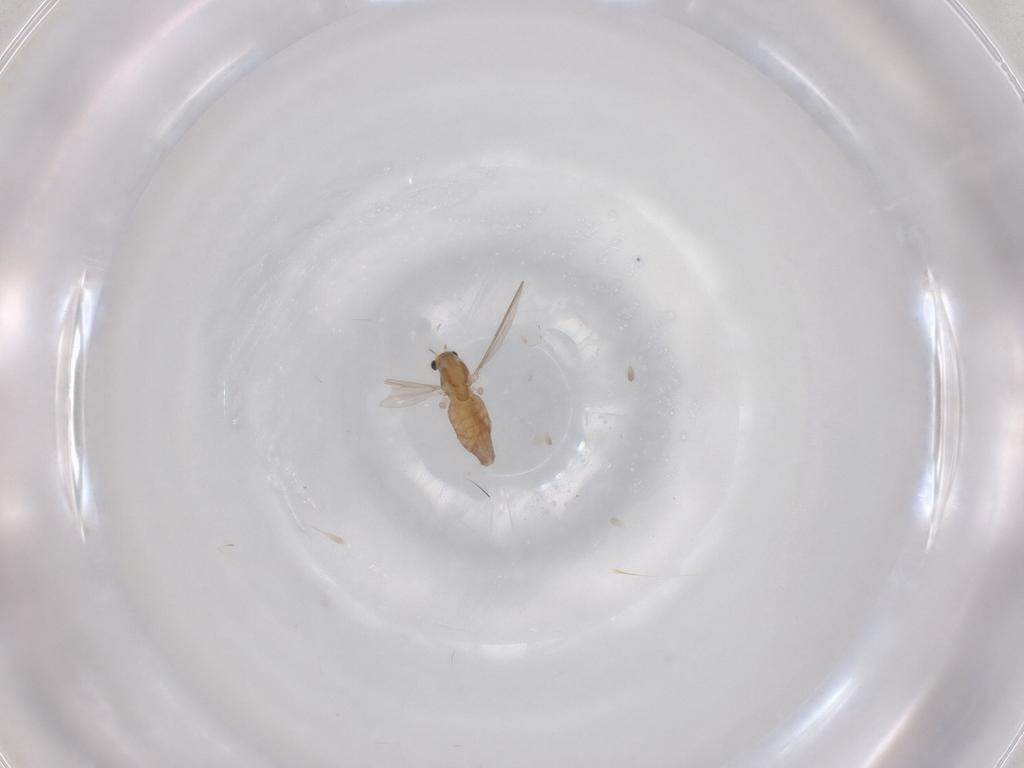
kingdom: Animalia
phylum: Arthropoda
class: Insecta
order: Diptera
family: Chironomidae
